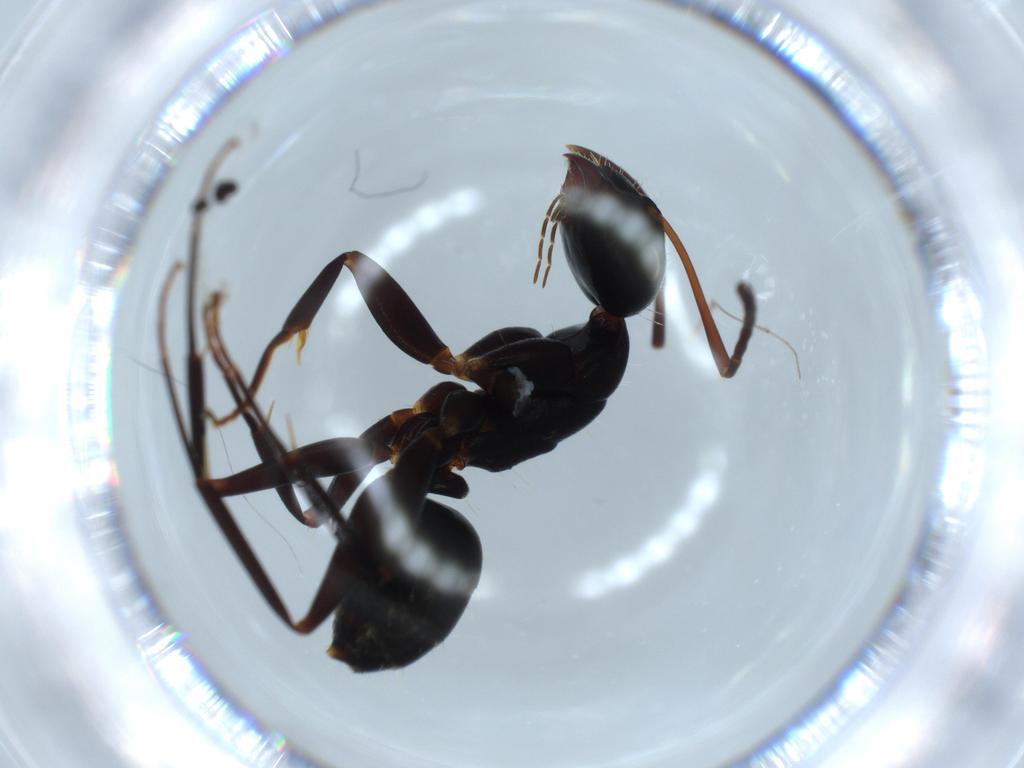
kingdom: Animalia
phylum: Arthropoda
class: Insecta
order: Hymenoptera
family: Formicidae
